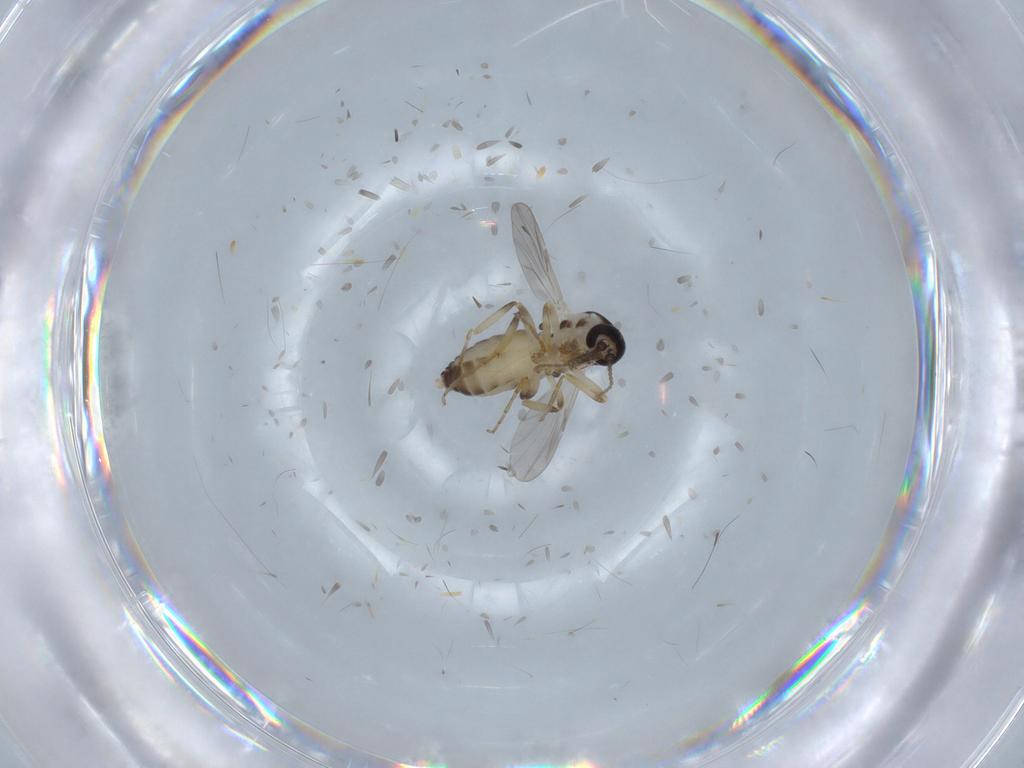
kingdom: Animalia
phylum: Arthropoda
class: Insecta
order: Diptera
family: Ceratopogonidae
